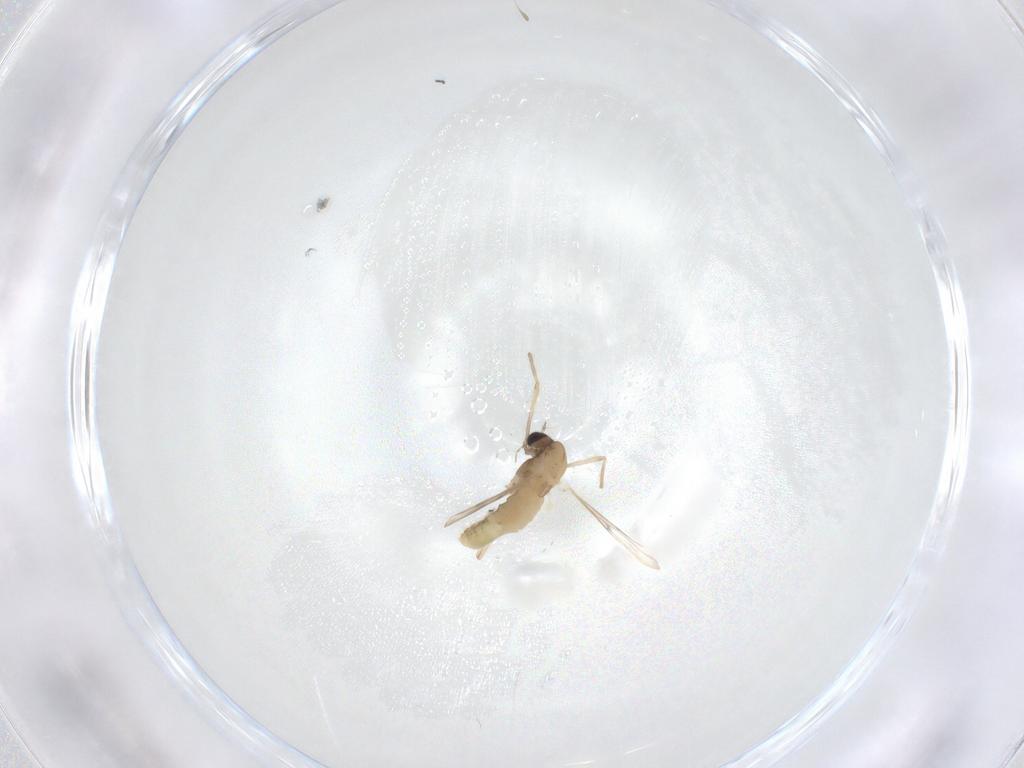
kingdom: Animalia
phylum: Arthropoda
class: Insecta
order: Diptera
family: Chironomidae
